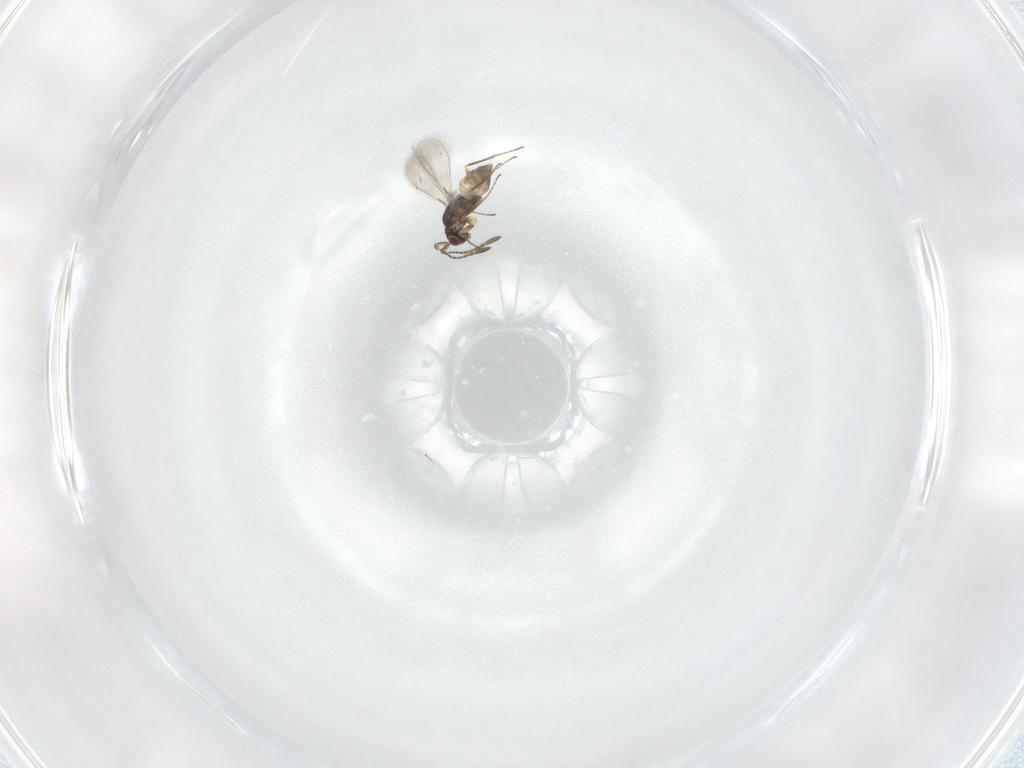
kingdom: Animalia
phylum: Arthropoda
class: Insecta
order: Hymenoptera
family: Mymaridae
